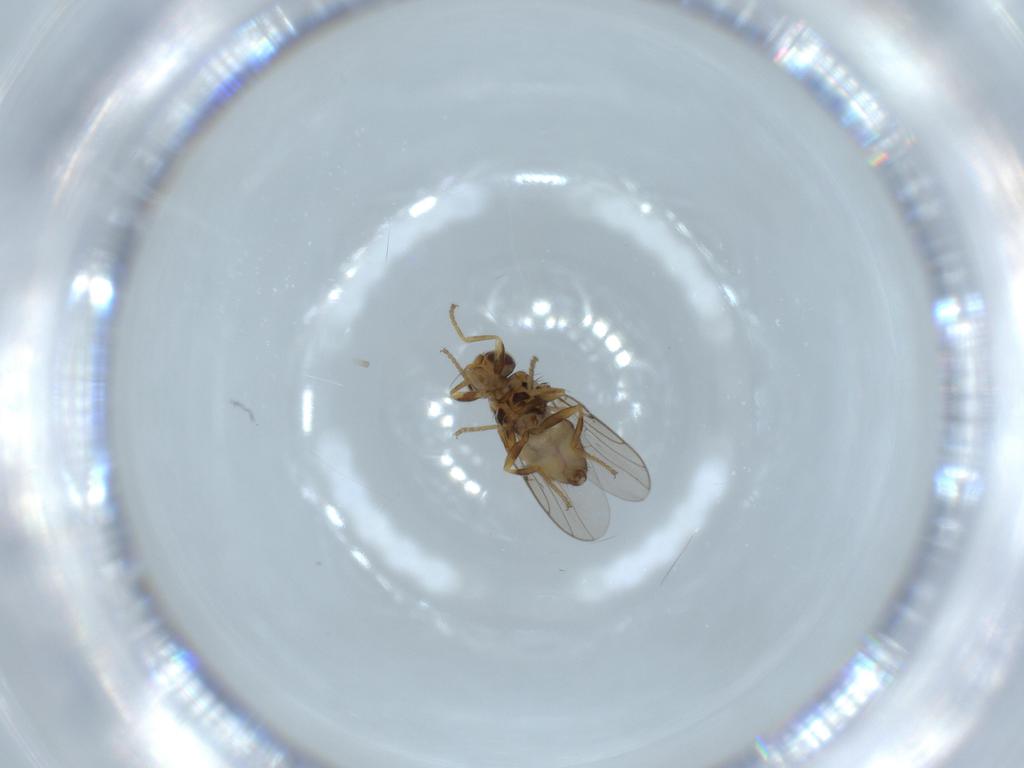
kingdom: Animalia
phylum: Arthropoda
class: Insecta
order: Diptera
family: Chloropidae
